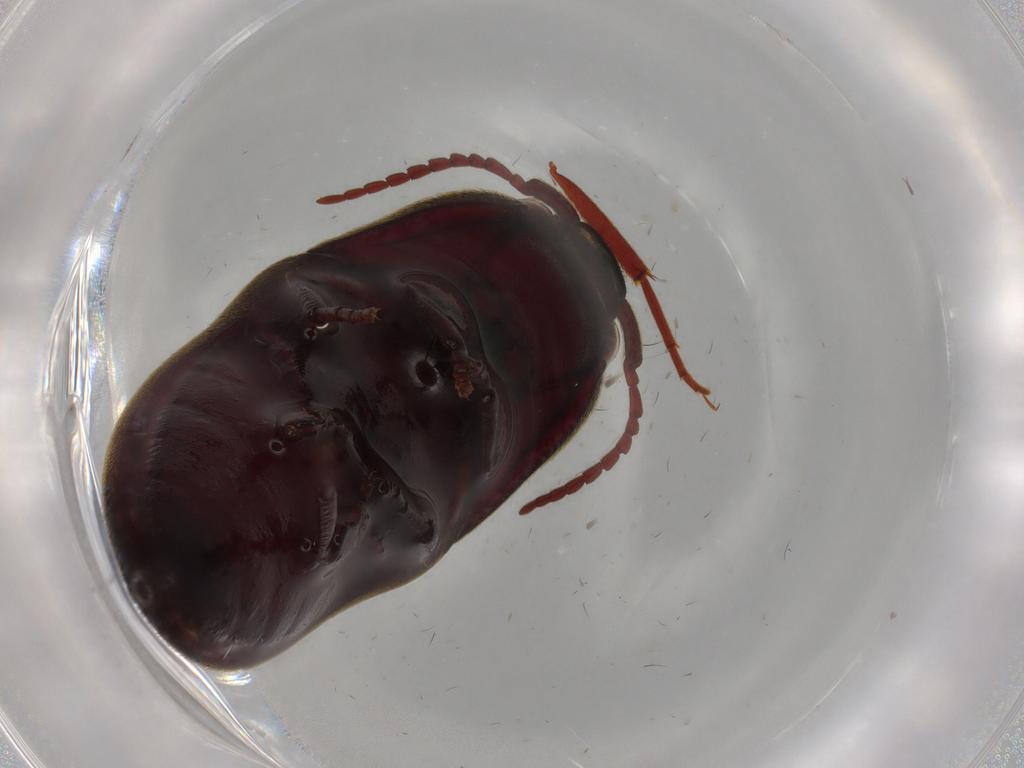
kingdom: Animalia
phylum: Arthropoda
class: Insecta
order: Coleoptera
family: Eucnemidae
